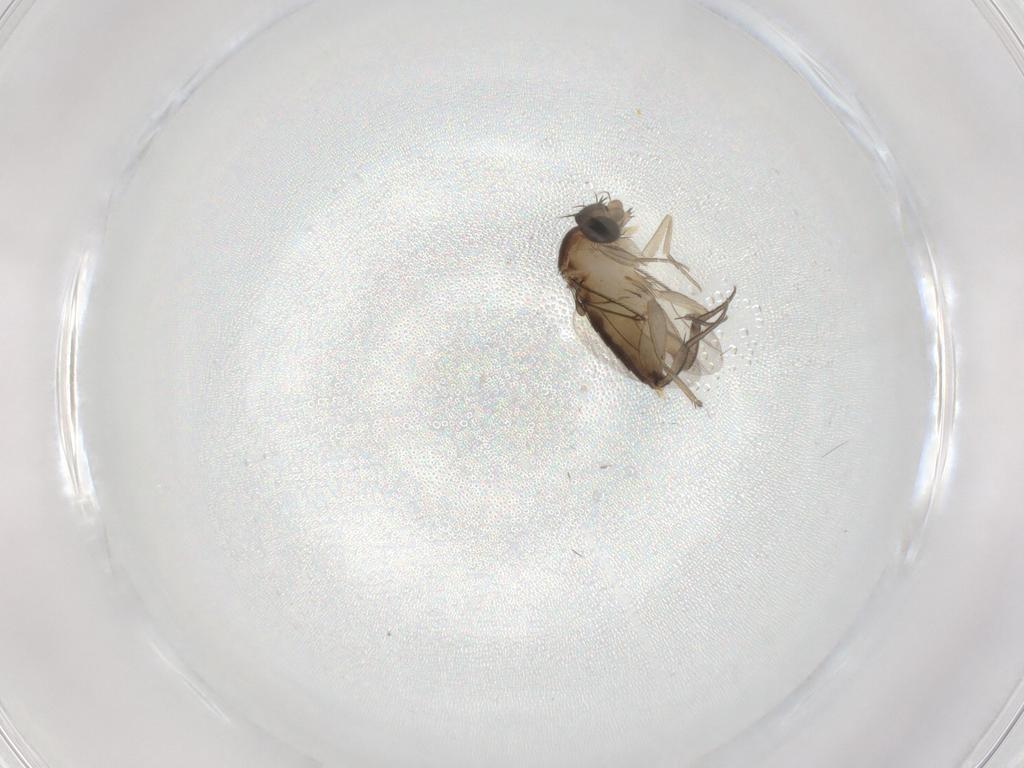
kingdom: Animalia
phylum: Arthropoda
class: Insecta
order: Diptera
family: Phoridae
